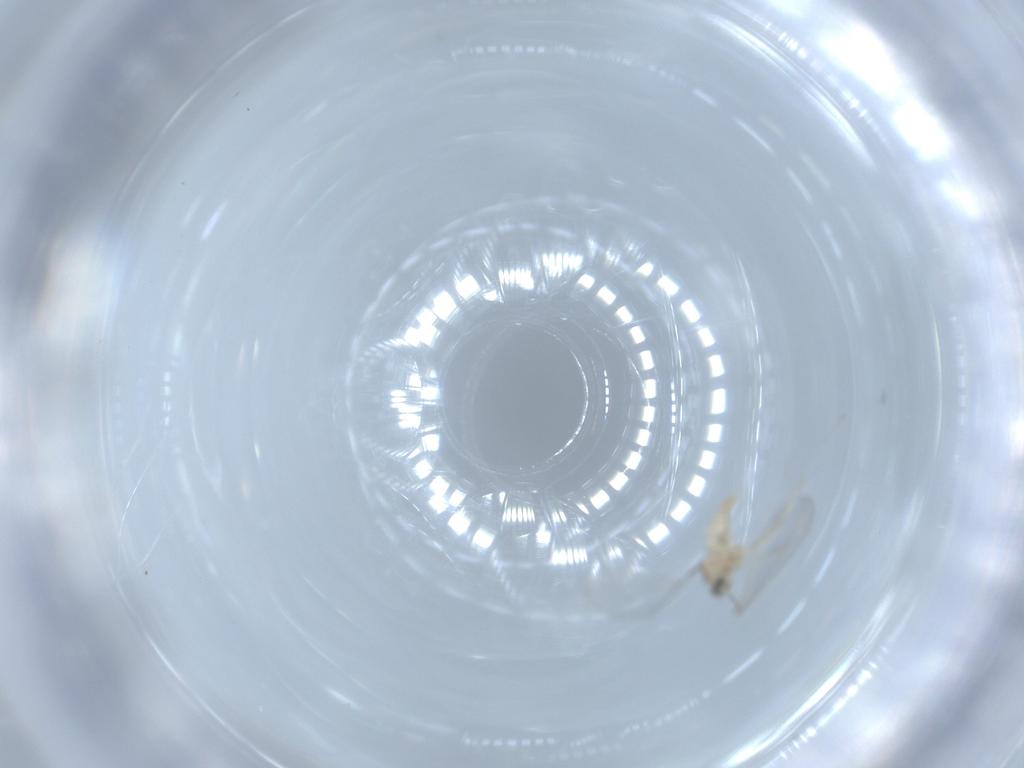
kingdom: Animalia
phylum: Arthropoda
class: Insecta
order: Diptera
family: Cecidomyiidae
